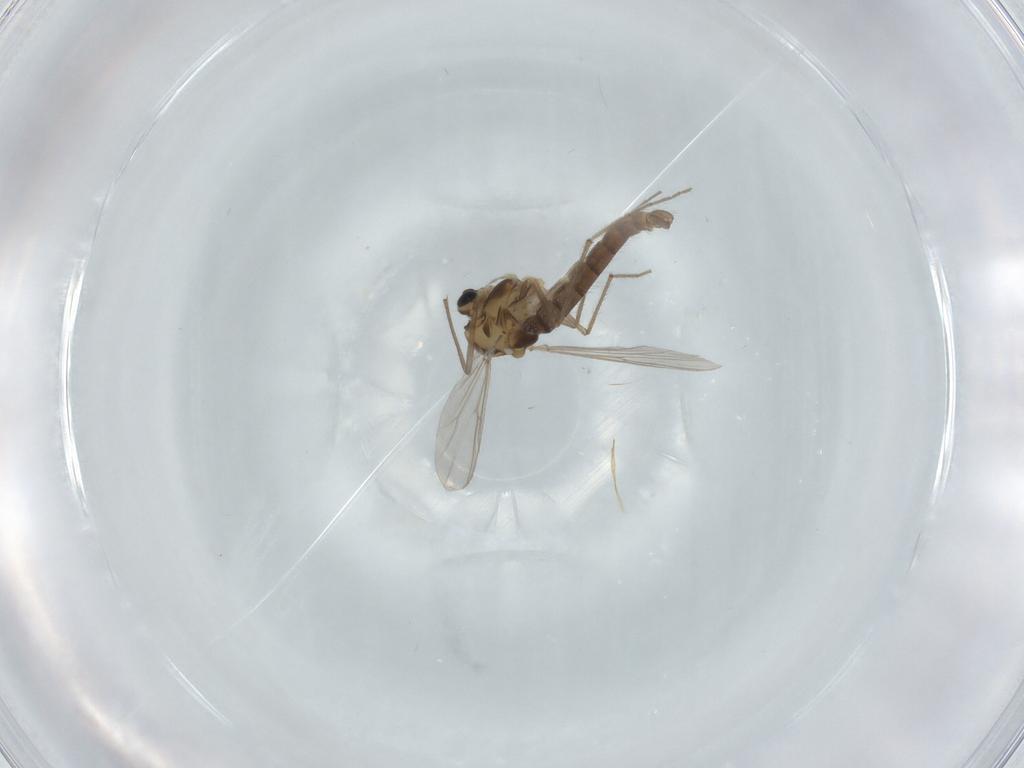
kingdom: Animalia
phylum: Arthropoda
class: Insecta
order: Diptera
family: Chironomidae
